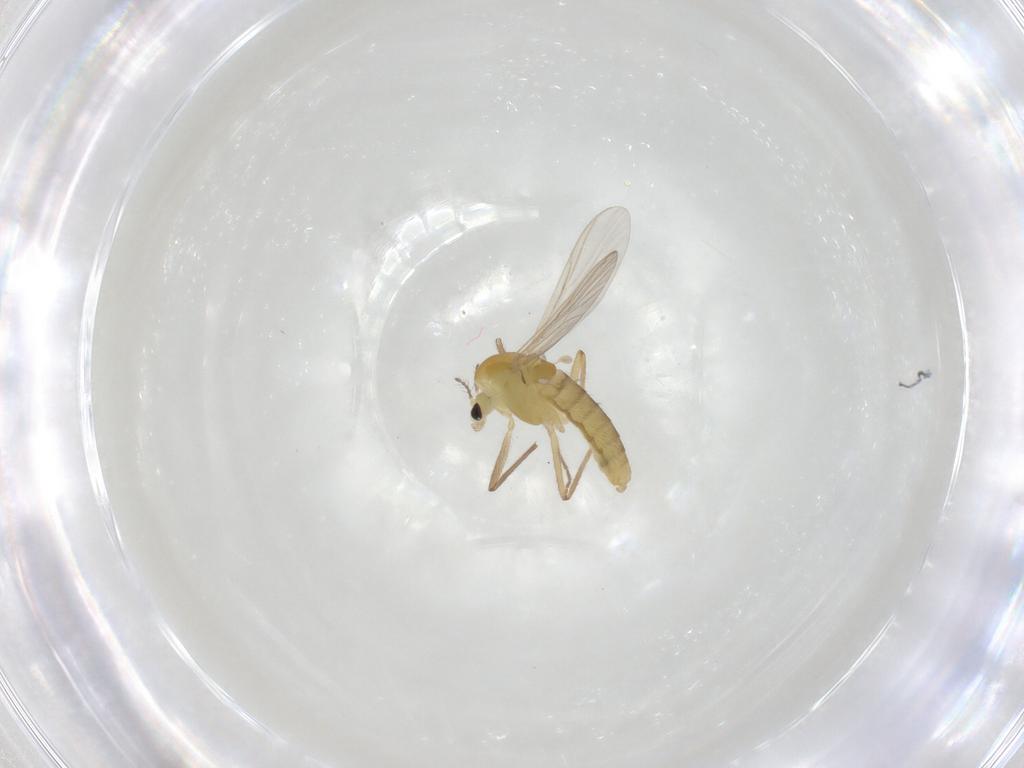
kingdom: Animalia
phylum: Arthropoda
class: Insecta
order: Diptera
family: Chironomidae
